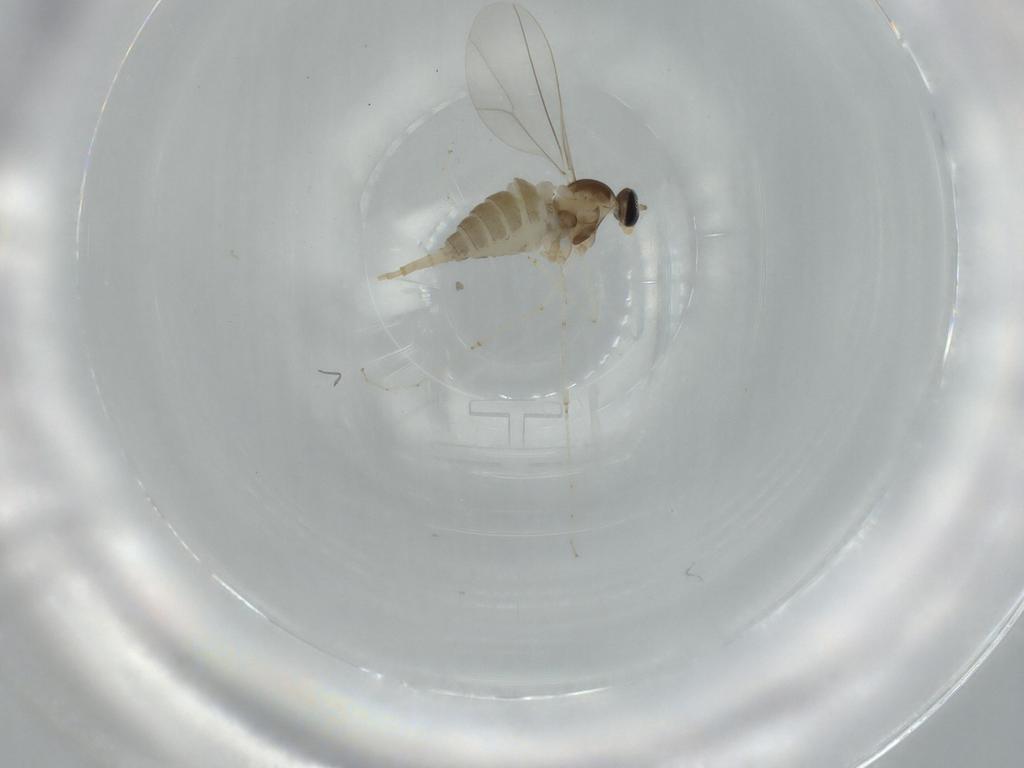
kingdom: Animalia
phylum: Arthropoda
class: Insecta
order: Diptera
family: Cecidomyiidae
